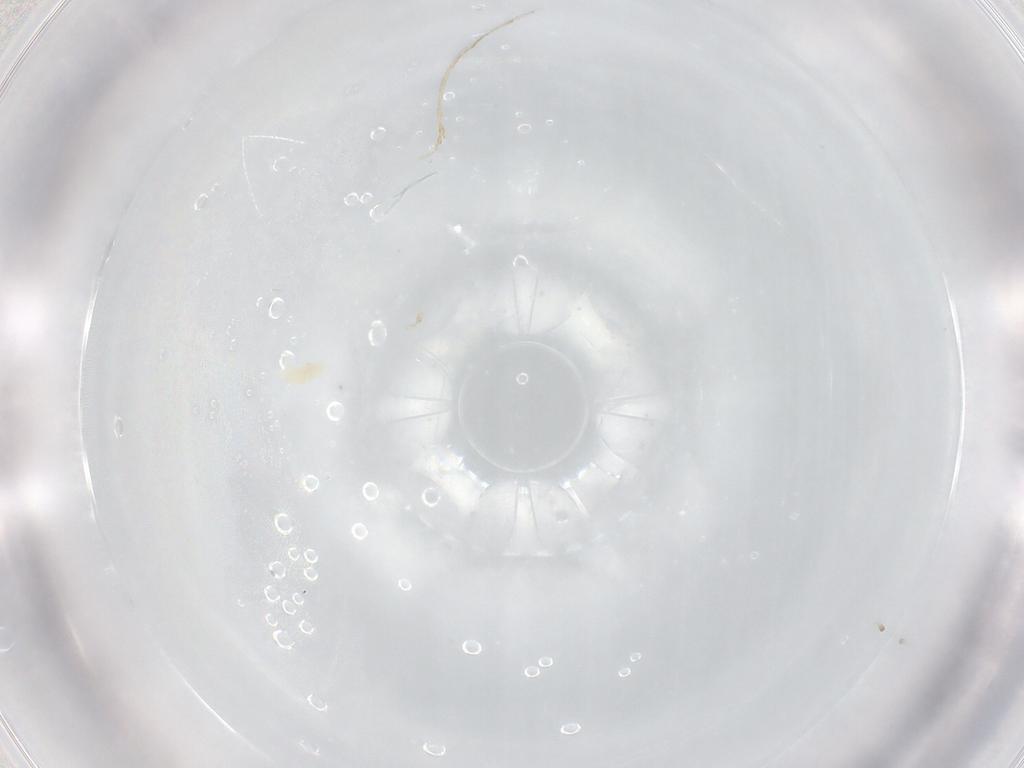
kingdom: Animalia
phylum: Arthropoda
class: Arachnida
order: Trombidiformes
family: Eupodidae
